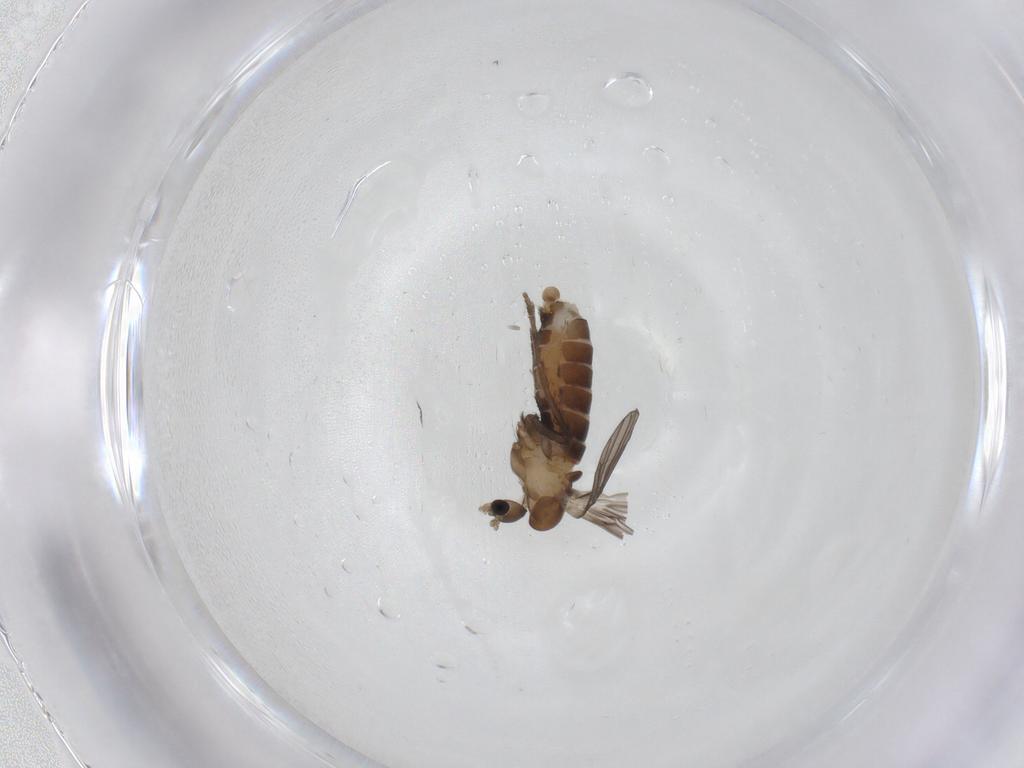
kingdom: Animalia
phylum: Arthropoda
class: Insecta
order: Diptera
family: Psychodidae
